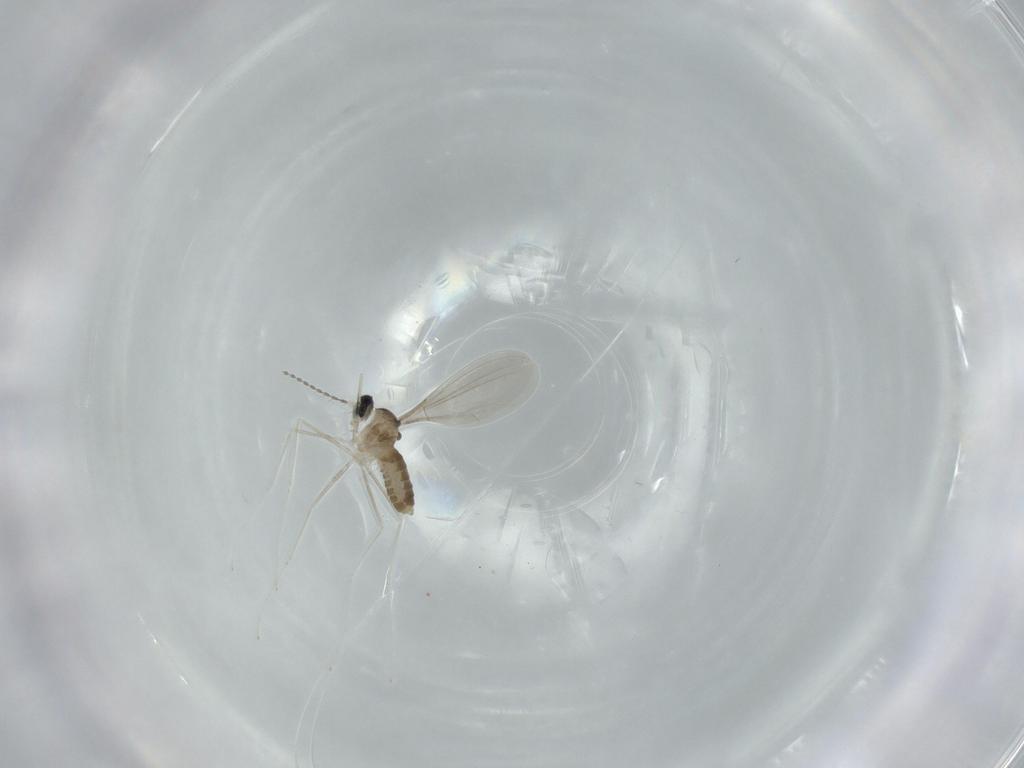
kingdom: Animalia
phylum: Arthropoda
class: Insecta
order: Diptera
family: Cecidomyiidae
